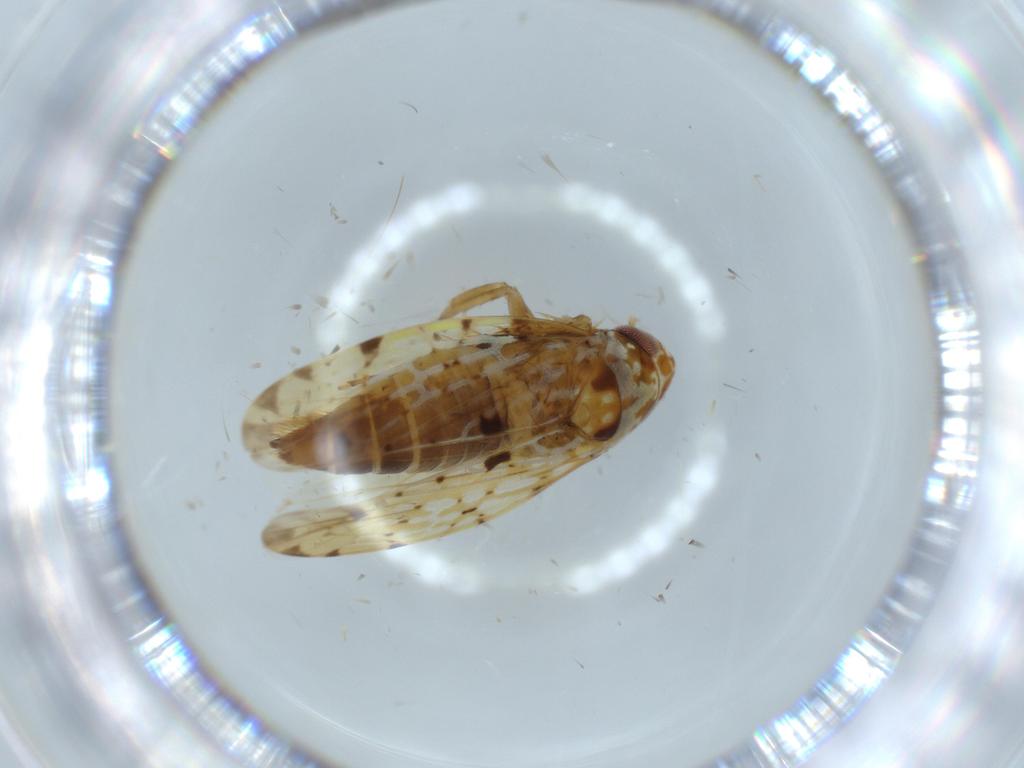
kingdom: Animalia
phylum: Arthropoda
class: Insecta
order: Hemiptera
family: Cicadellidae
